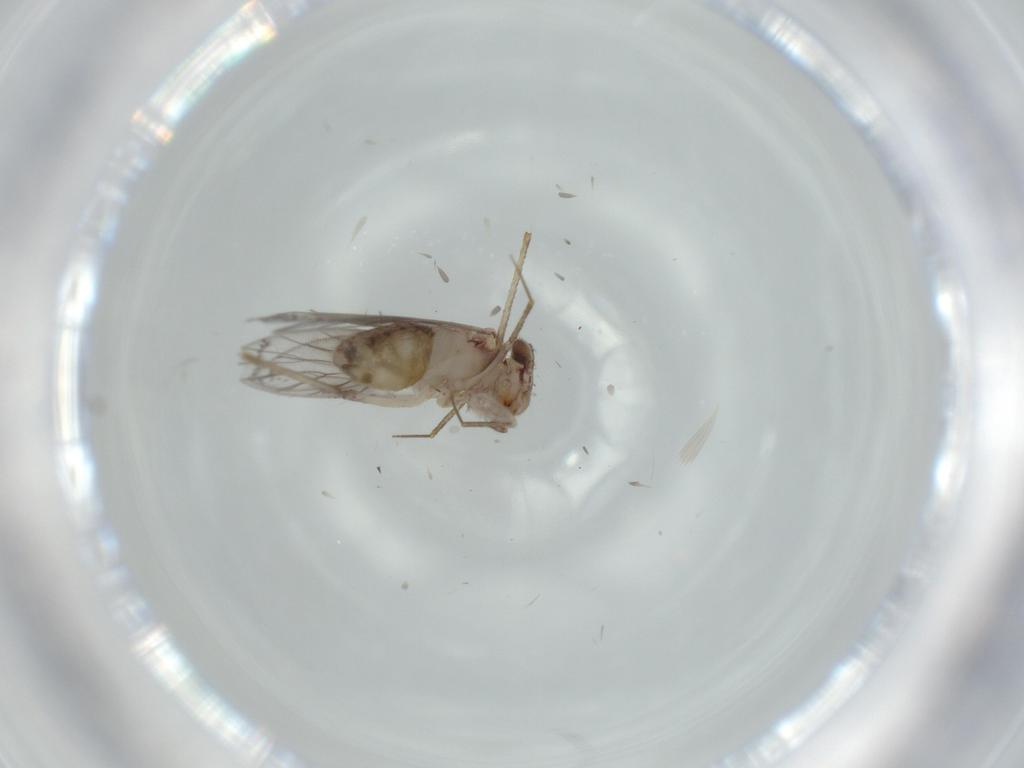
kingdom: Animalia
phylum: Arthropoda
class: Insecta
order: Psocodea
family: Lepidopsocidae
